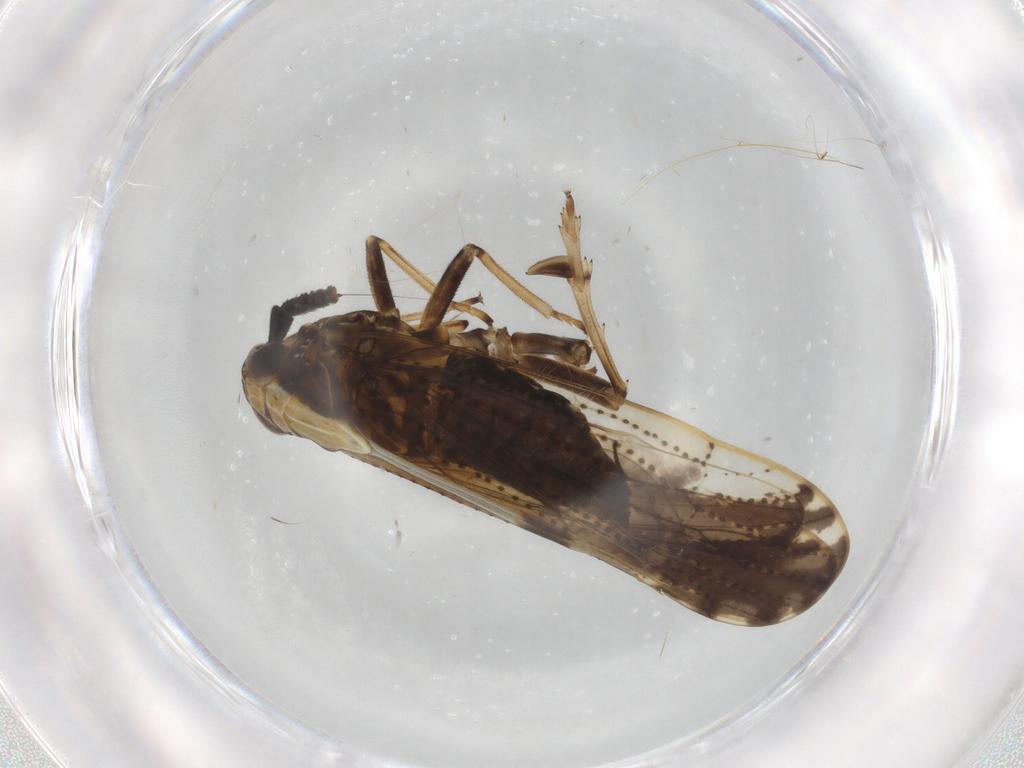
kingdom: Animalia
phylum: Arthropoda
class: Insecta
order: Hemiptera
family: Delphacidae
